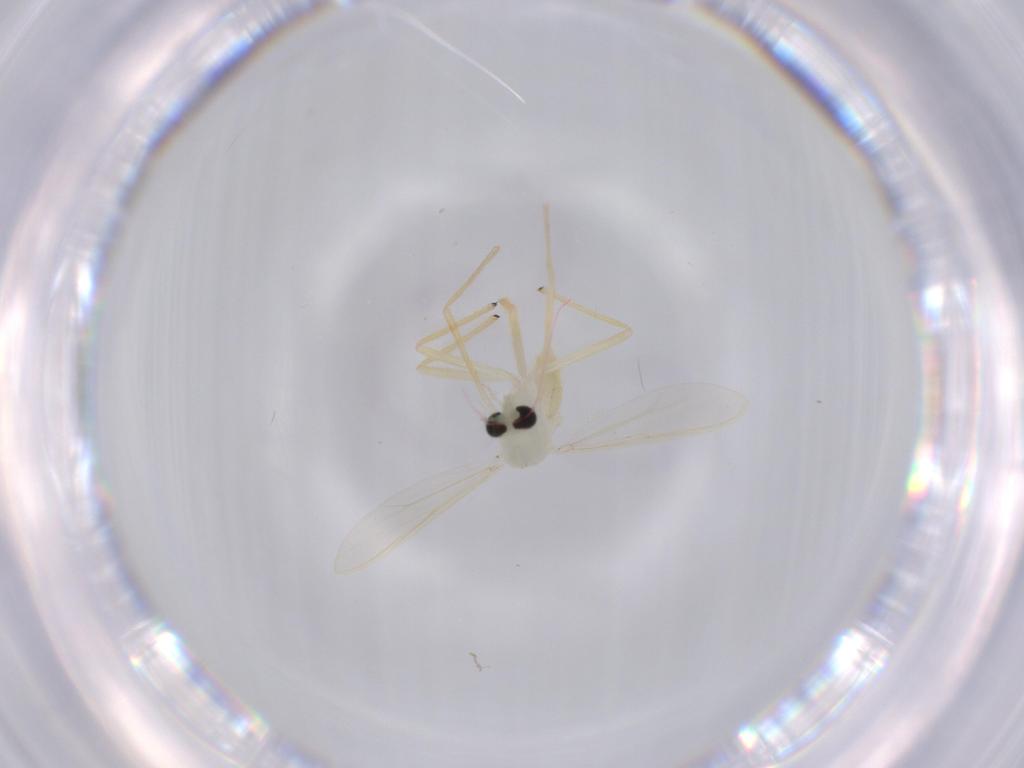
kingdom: Animalia
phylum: Arthropoda
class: Insecta
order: Diptera
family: Chironomidae
